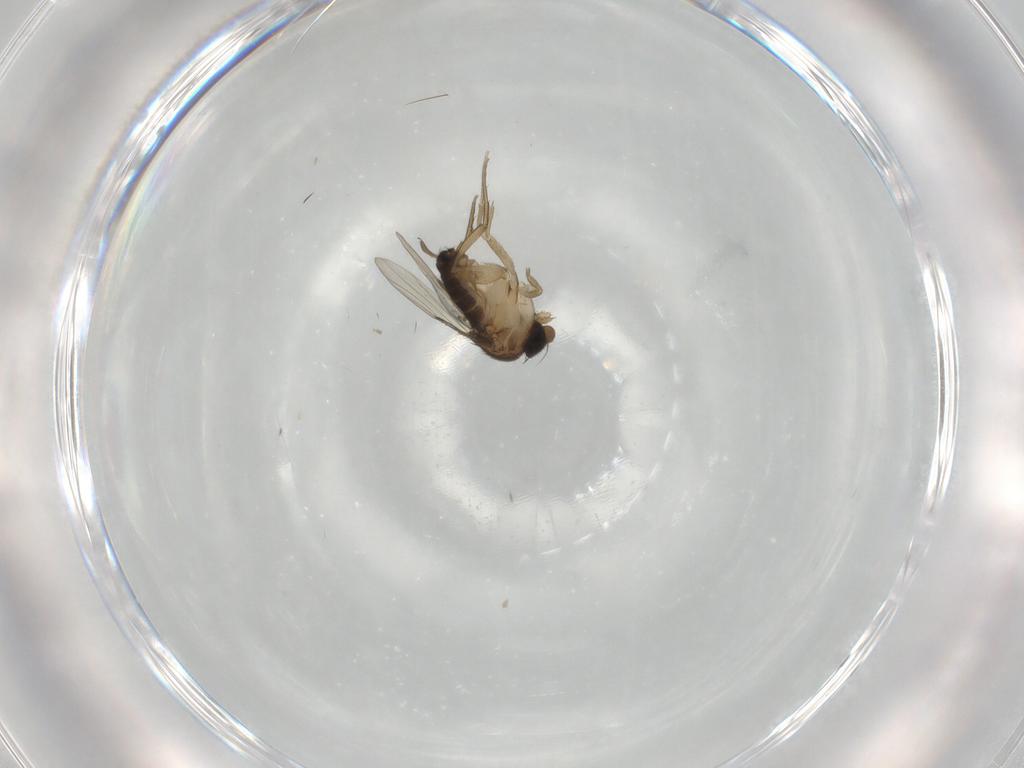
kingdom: Animalia
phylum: Arthropoda
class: Insecta
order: Diptera
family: Phoridae
